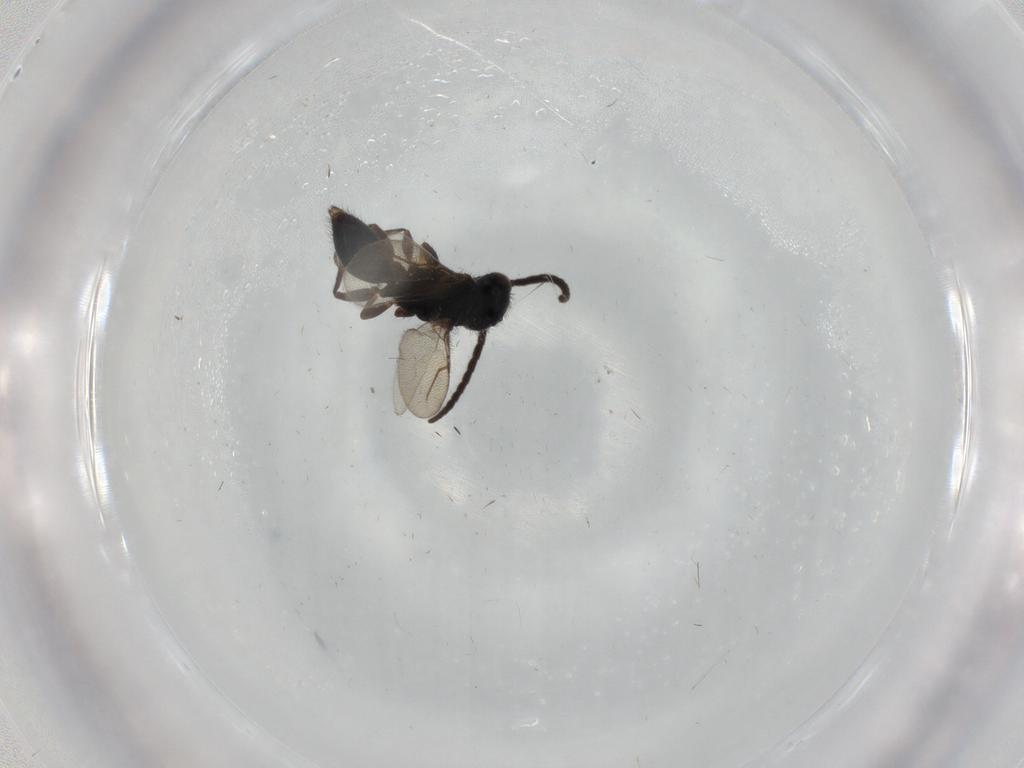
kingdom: Animalia
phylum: Arthropoda
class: Insecta
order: Hymenoptera
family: Bethylidae
